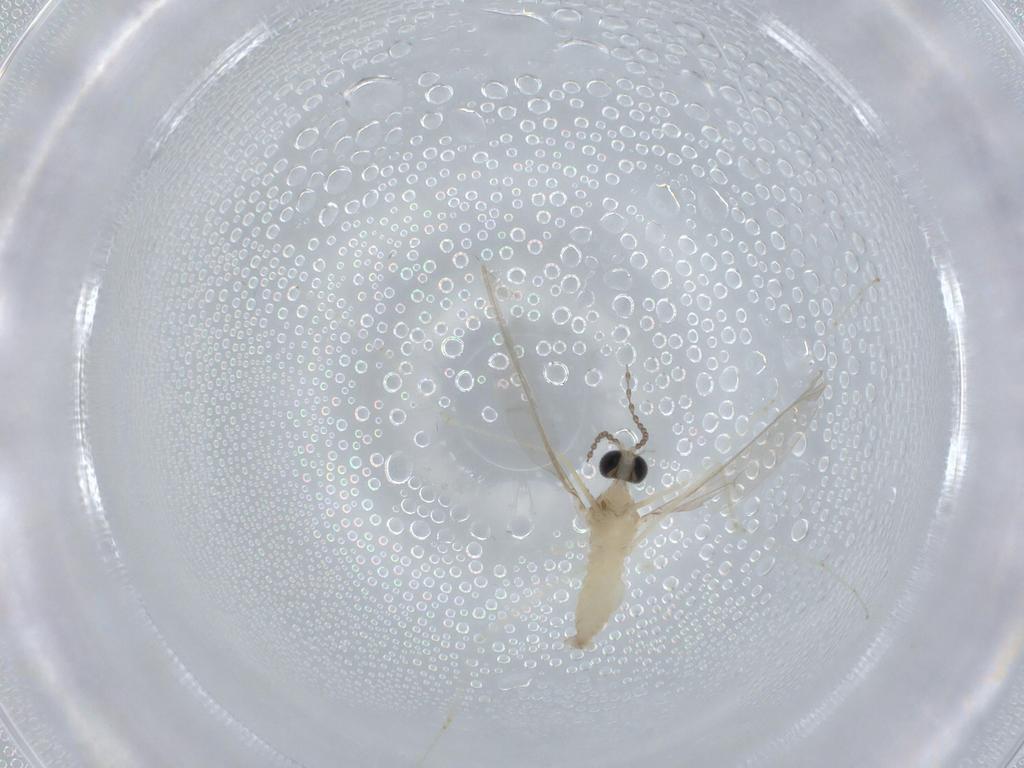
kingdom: Animalia
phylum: Arthropoda
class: Insecta
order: Diptera
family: Cecidomyiidae
